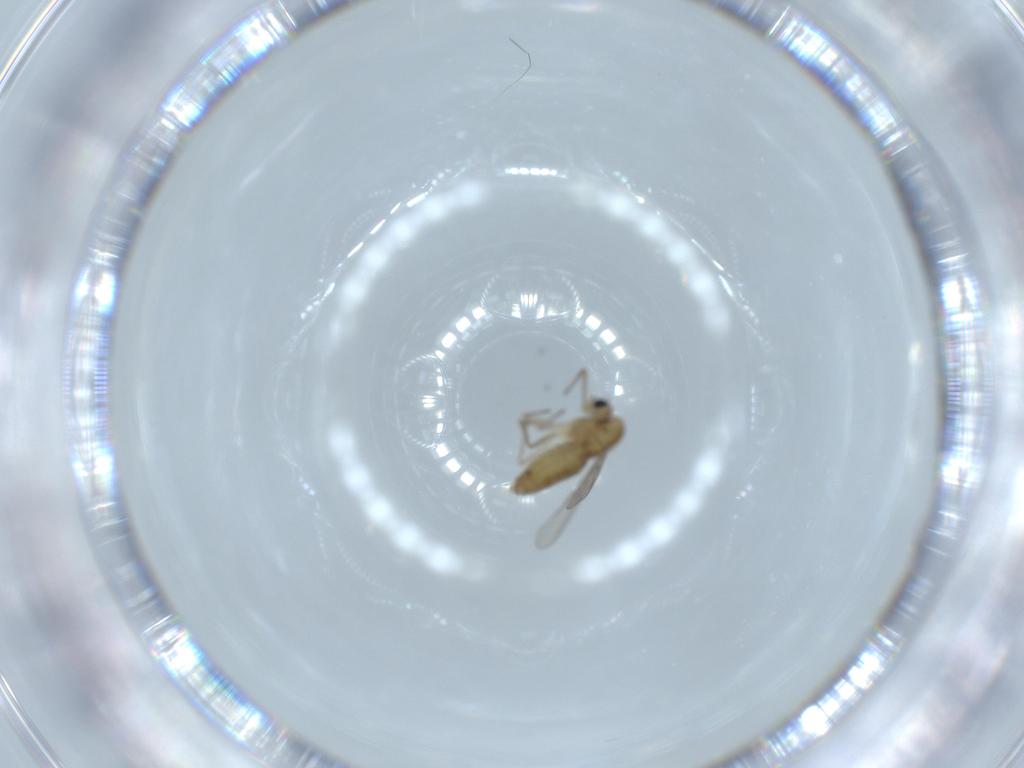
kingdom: Animalia
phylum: Arthropoda
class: Insecta
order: Diptera
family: Chironomidae
